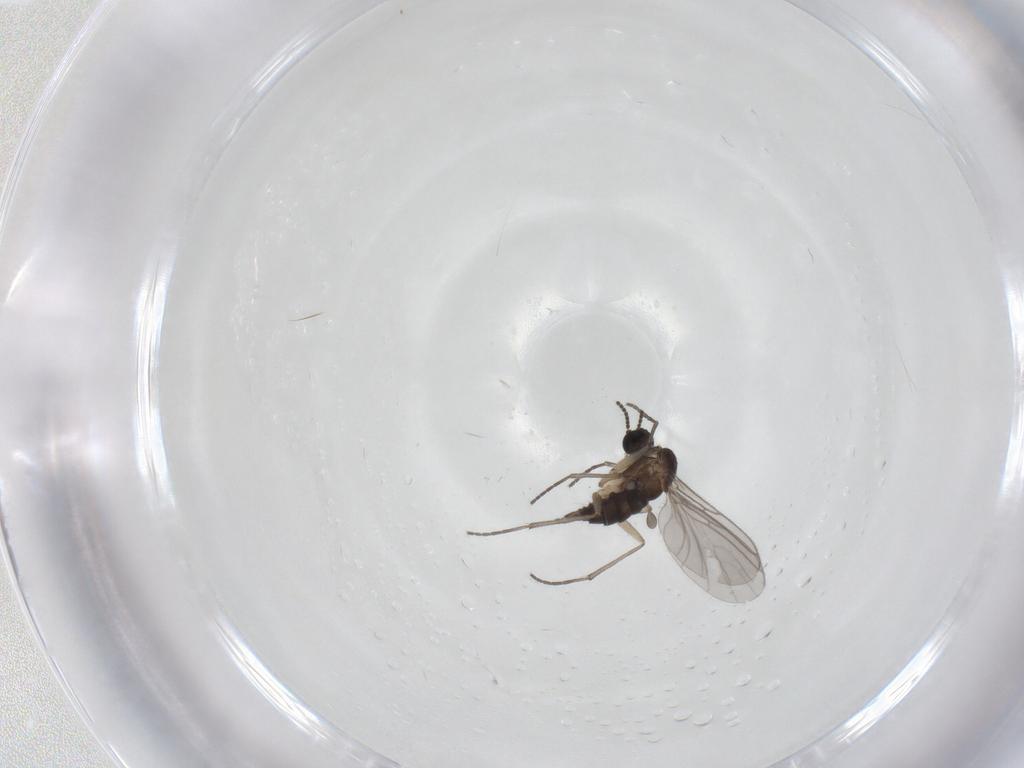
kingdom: Animalia
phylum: Arthropoda
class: Insecta
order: Diptera
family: Sciaridae
